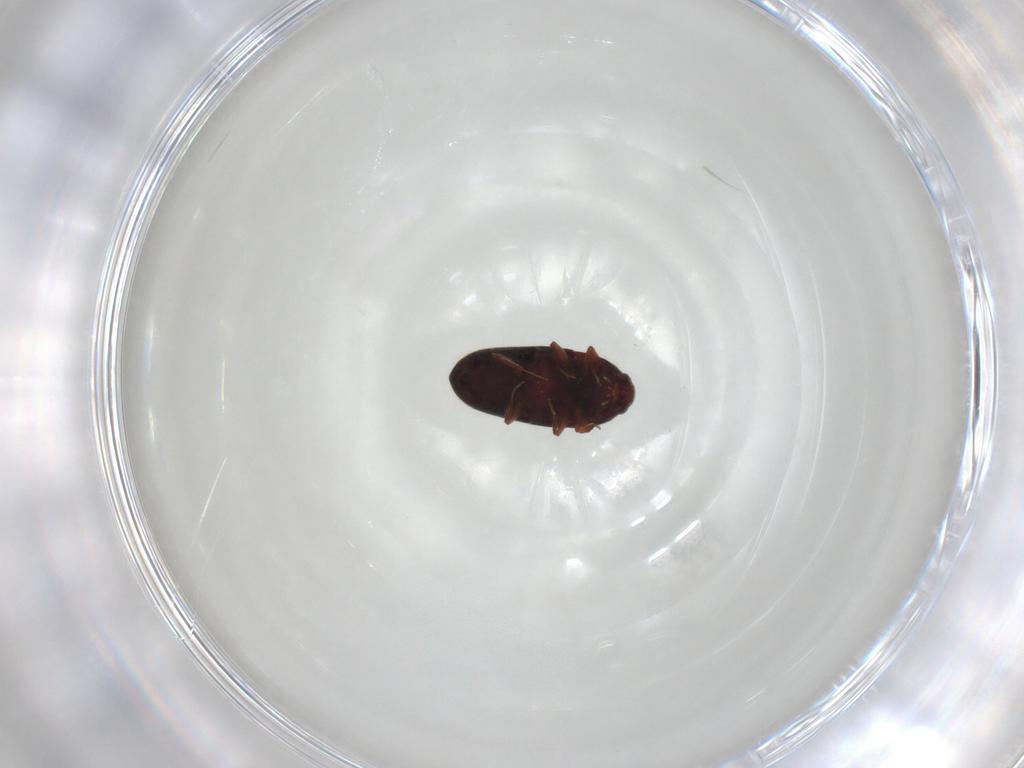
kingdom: Animalia
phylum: Arthropoda
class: Insecta
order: Coleoptera
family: Throscidae
